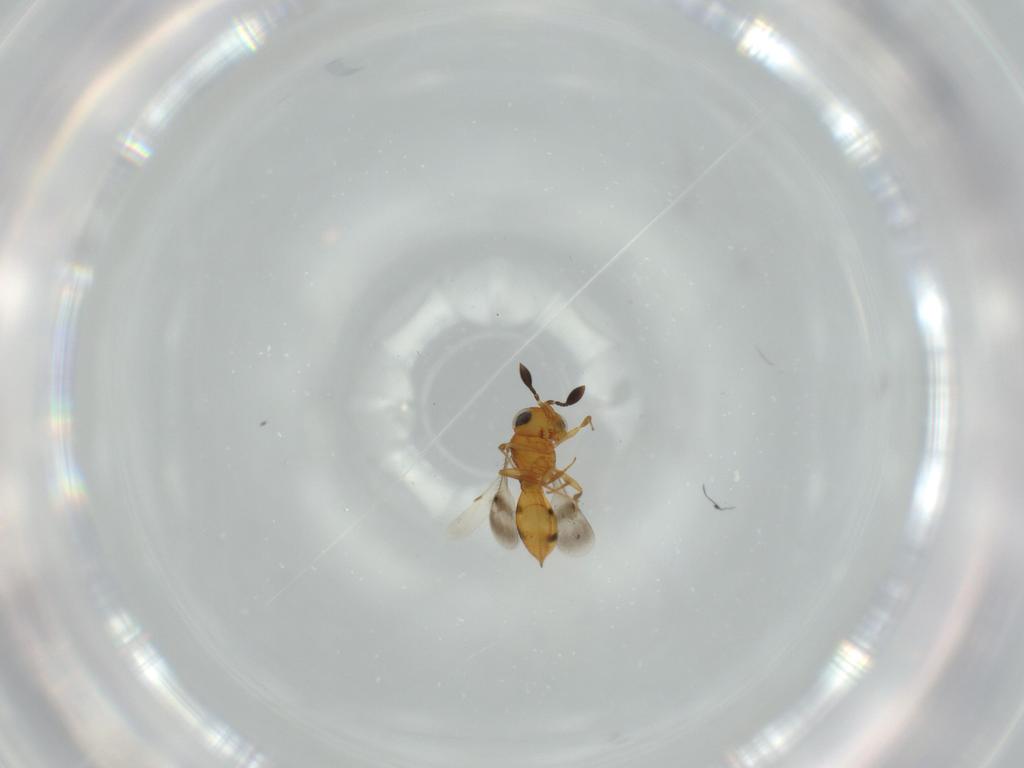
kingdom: Animalia
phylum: Arthropoda
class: Insecta
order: Hymenoptera
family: Scelionidae
